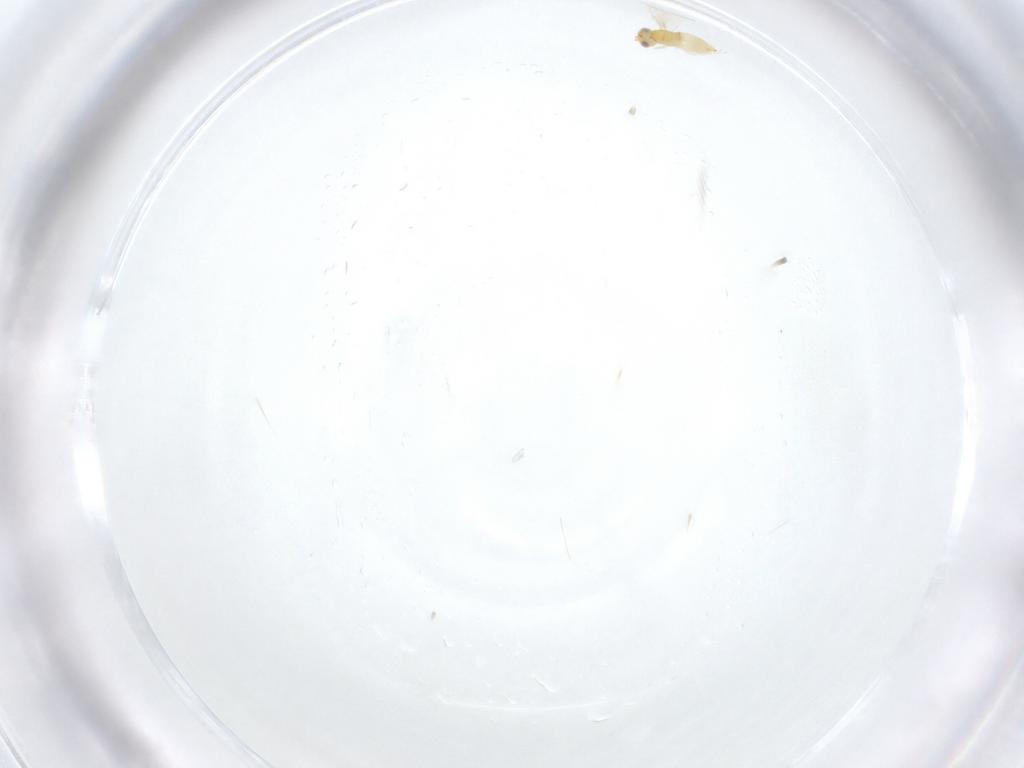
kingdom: Animalia
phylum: Arthropoda
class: Insecta
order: Hymenoptera
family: Aphelinidae
